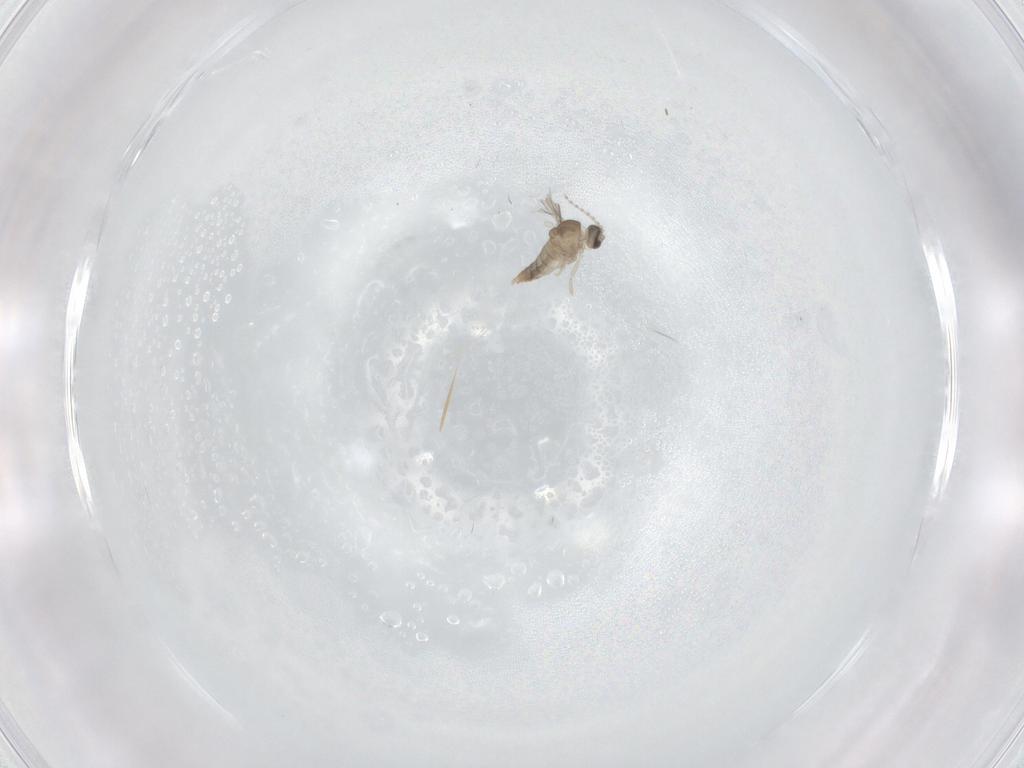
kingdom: Animalia
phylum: Arthropoda
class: Insecta
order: Diptera
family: Cecidomyiidae
